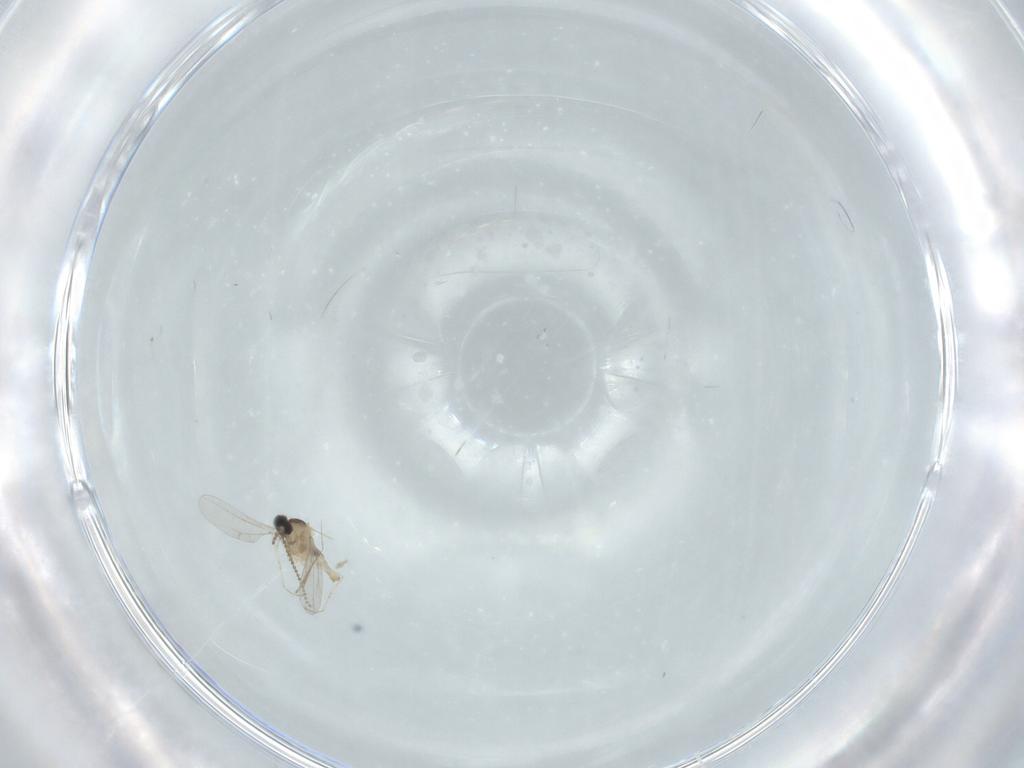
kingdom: Animalia
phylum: Arthropoda
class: Insecta
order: Diptera
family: Cecidomyiidae
